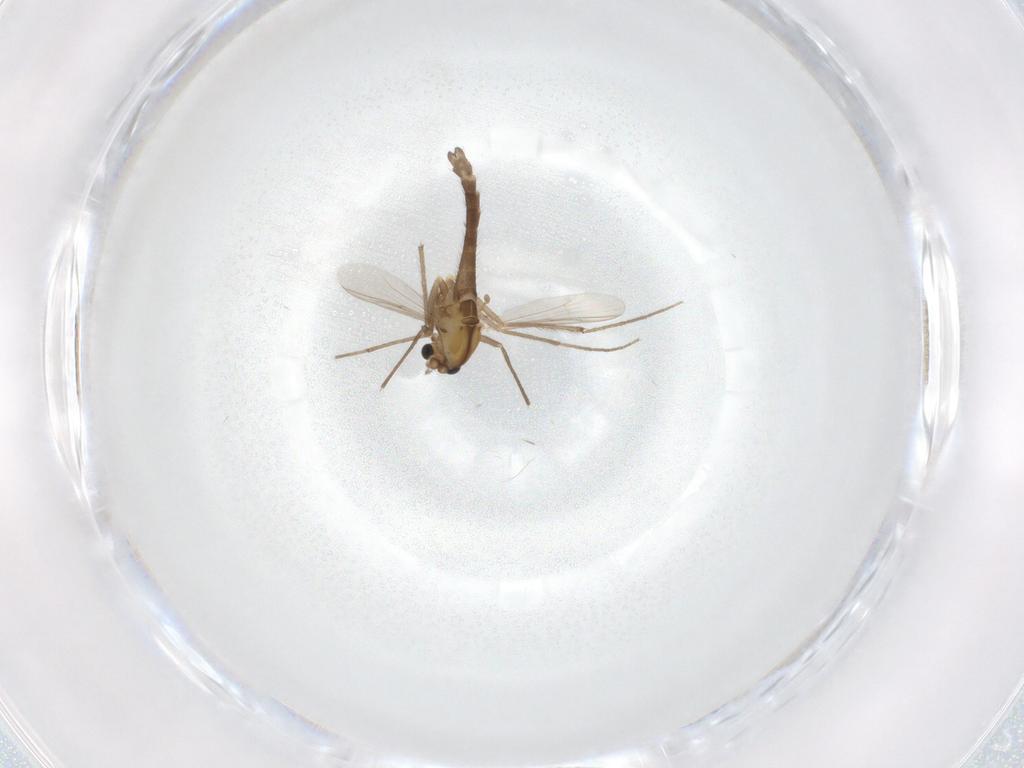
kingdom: Animalia
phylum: Arthropoda
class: Insecta
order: Diptera
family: Chironomidae
